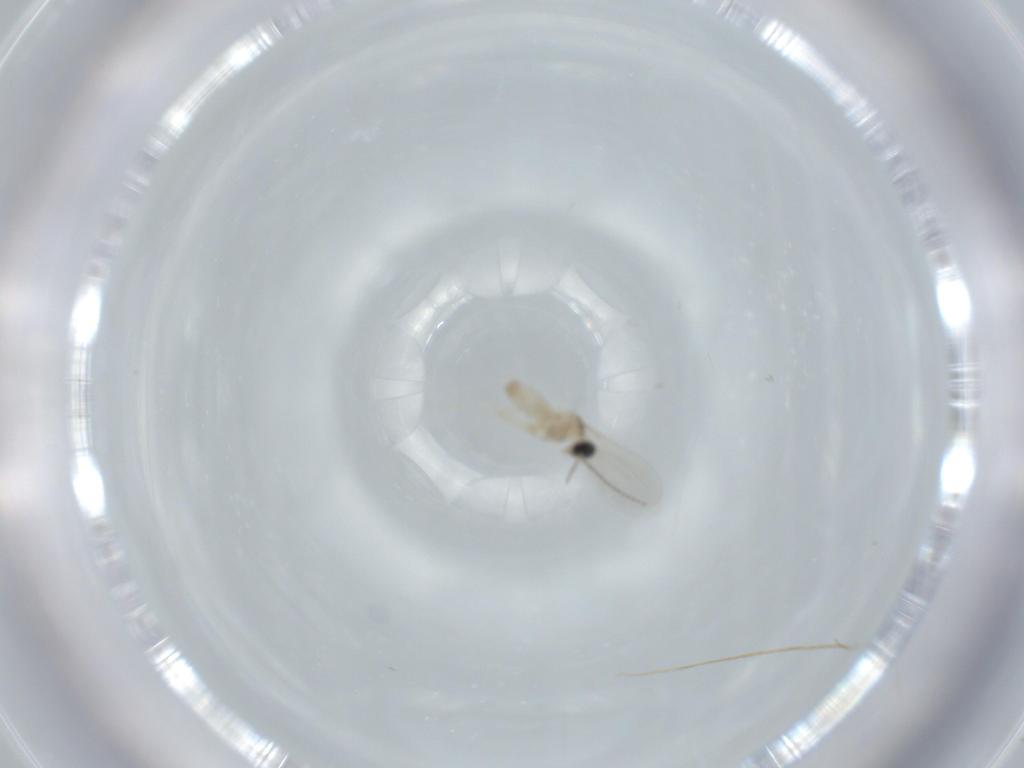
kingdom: Animalia
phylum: Arthropoda
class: Insecta
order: Diptera
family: Cecidomyiidae
